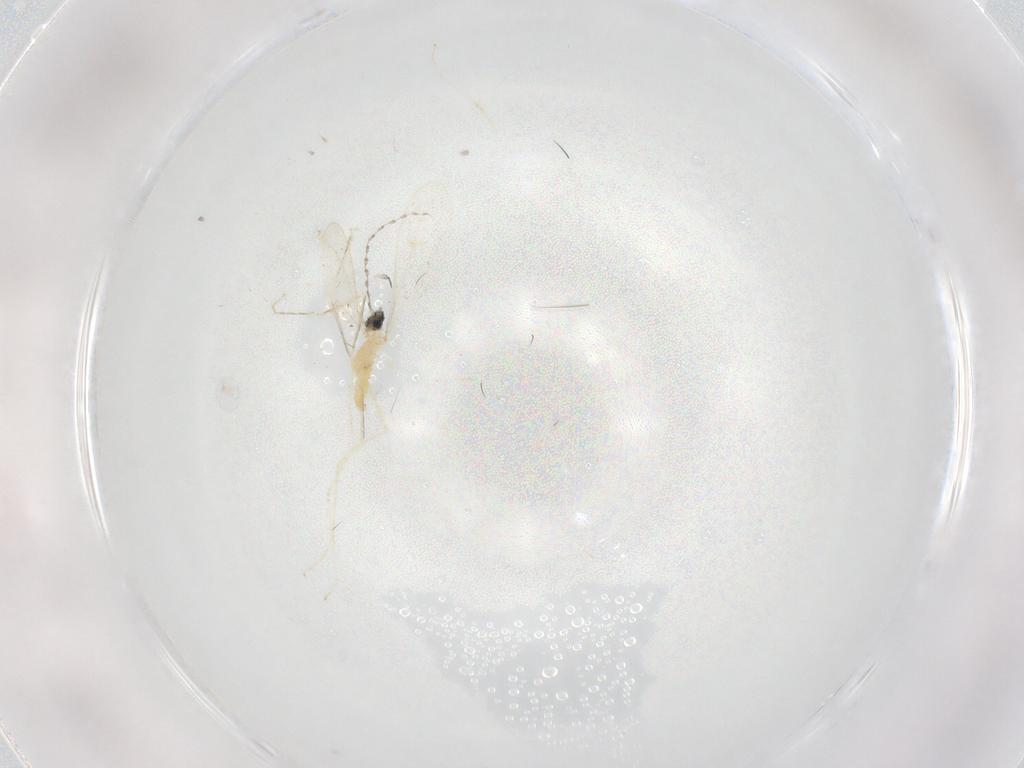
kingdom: Animalia
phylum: Arthropoda
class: Insecta
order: Diptera
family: Cecidomyiidae
